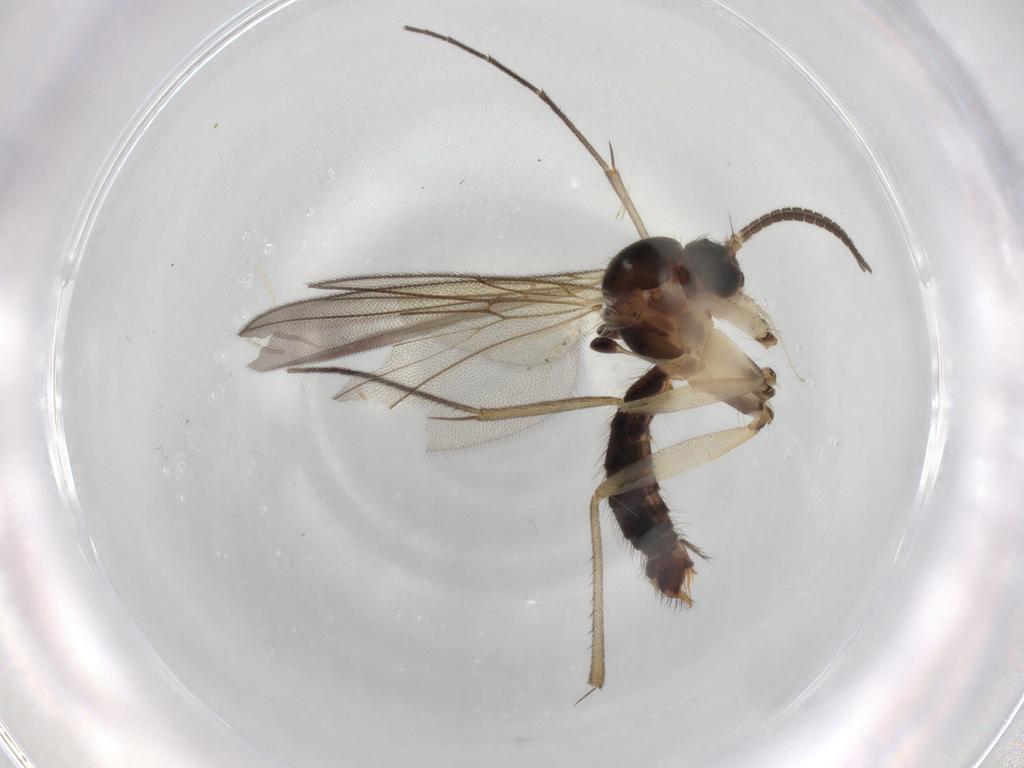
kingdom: Animalia
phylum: Arthropoda
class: Insecta
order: Diptera
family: Mycetophilidae
